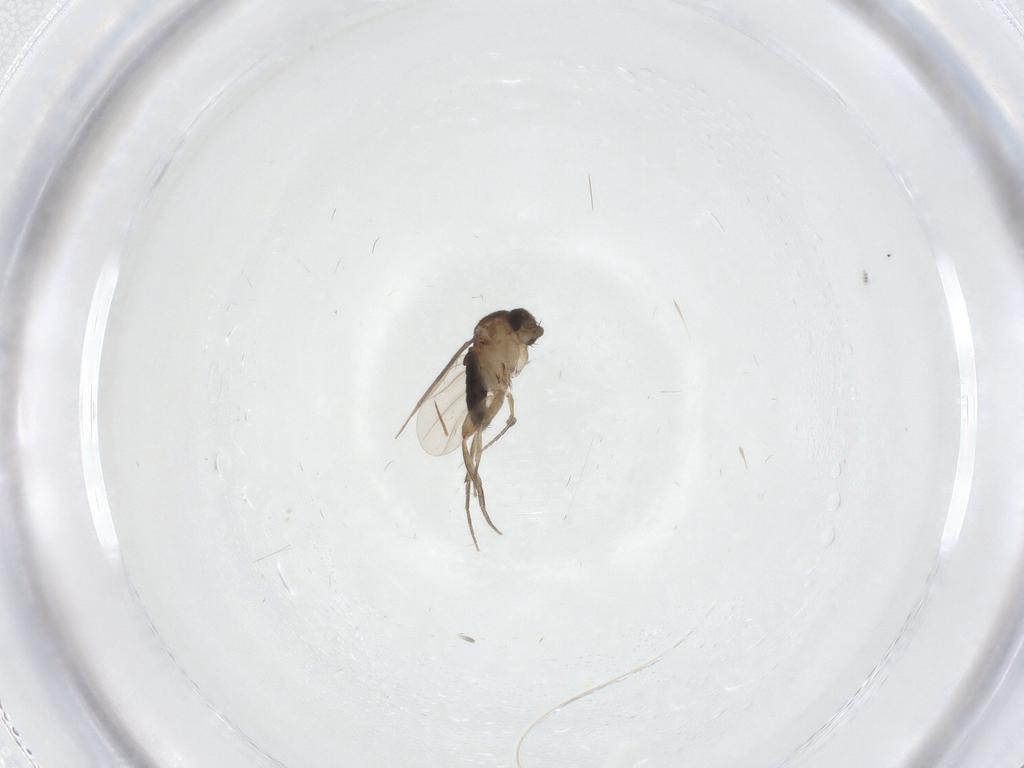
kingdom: Animalia
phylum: Arthropoda
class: Insecta
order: Diptera
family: Phoridae
